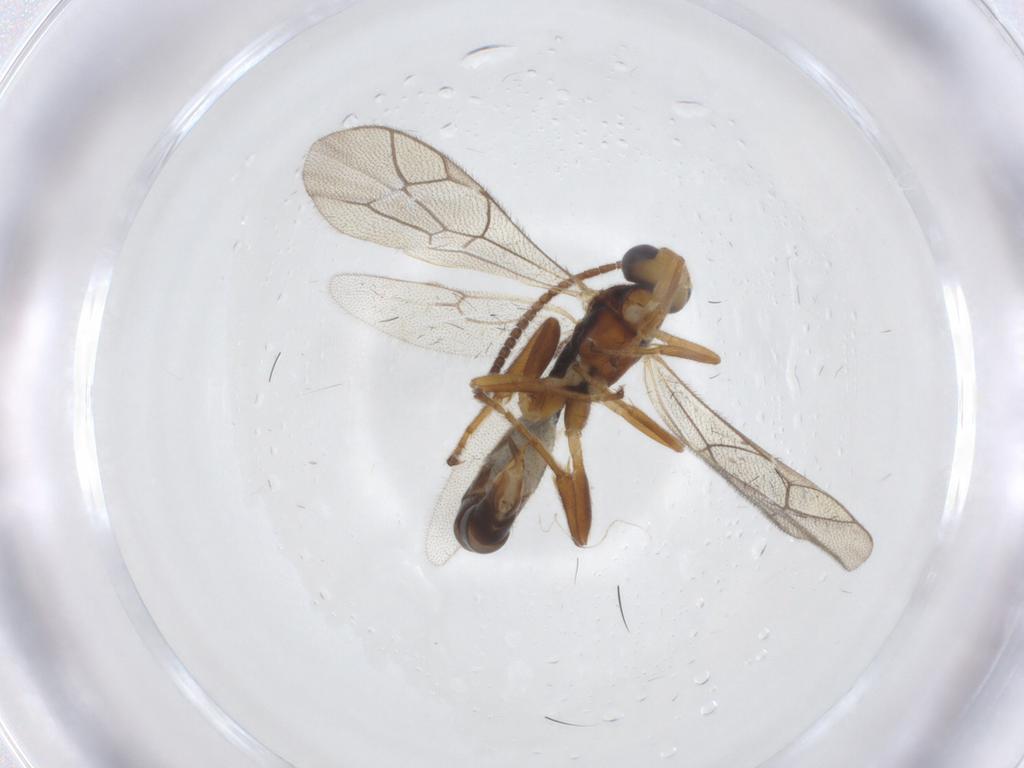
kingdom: Animalia
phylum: Arthropoda
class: Insecta
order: Hymenoptera
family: Ichneumonidae
